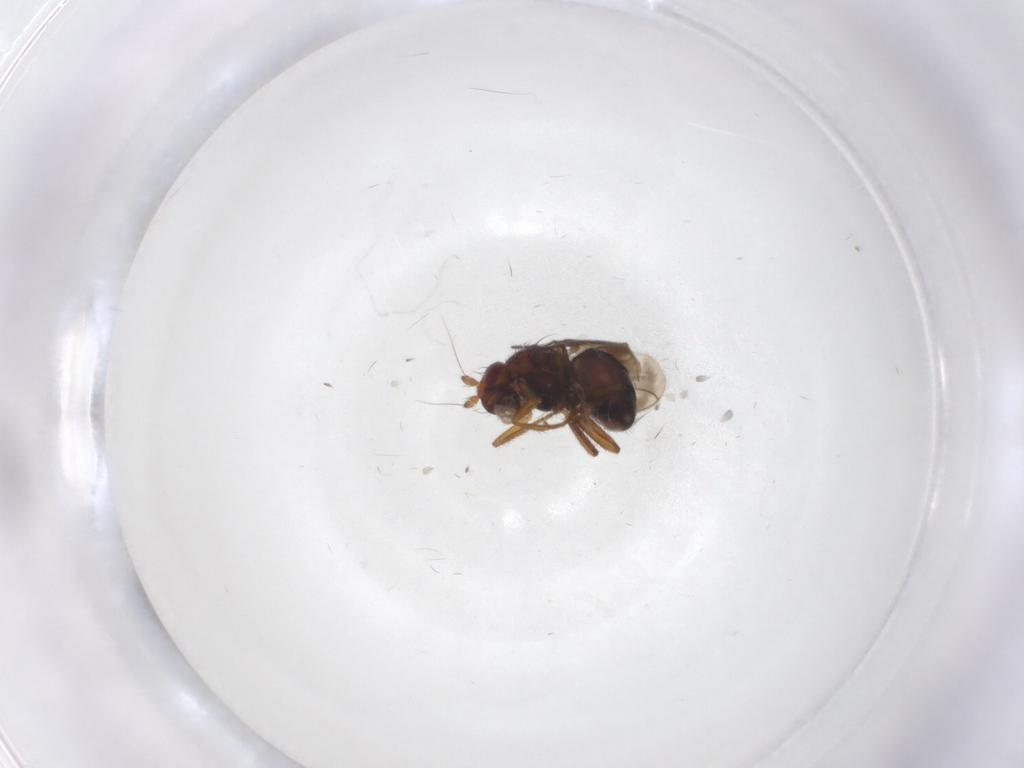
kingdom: Animalia
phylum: Arthropoda
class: Insecta
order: Diptera
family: Sphaeroceridae
